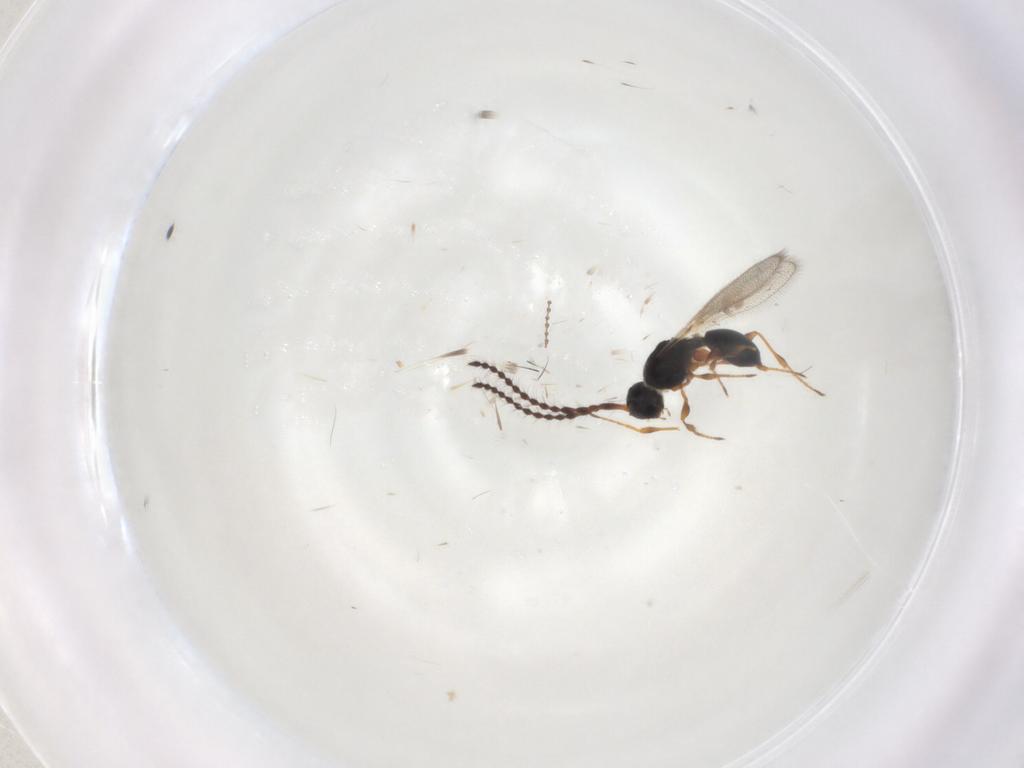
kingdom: Animalia
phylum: Arthropoda
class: Insecta
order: Hymenoptera
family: Diapriidae
